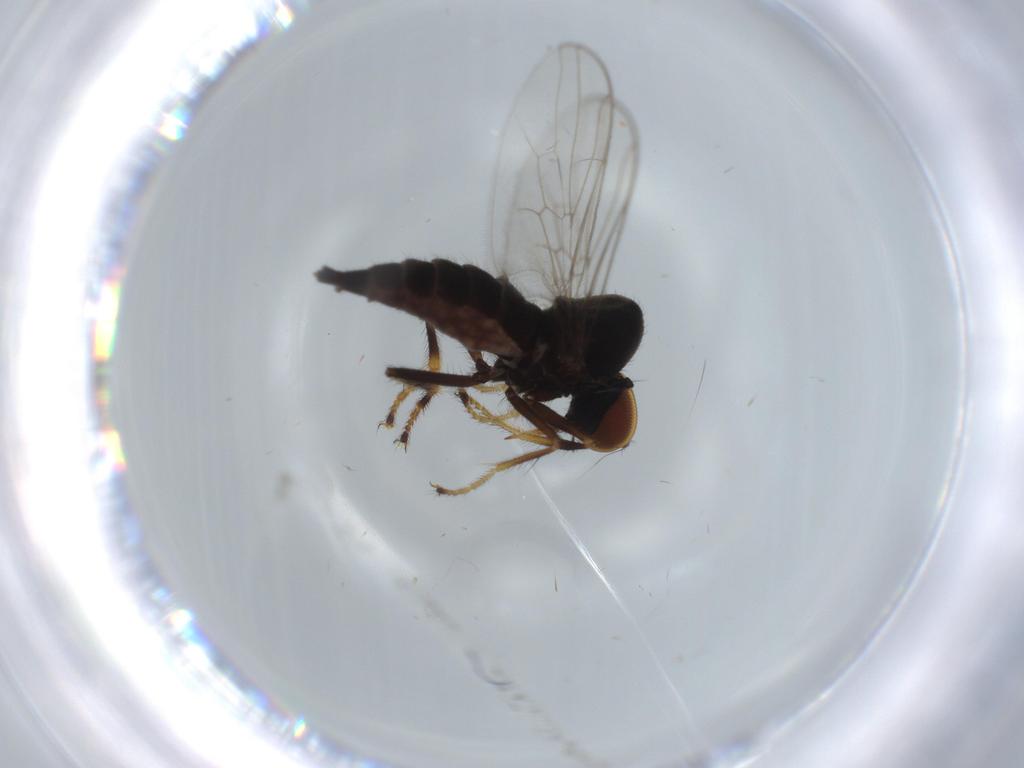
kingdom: Animalia
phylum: Arthropoda
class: Insecta
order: Diptera
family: Hybotidae
